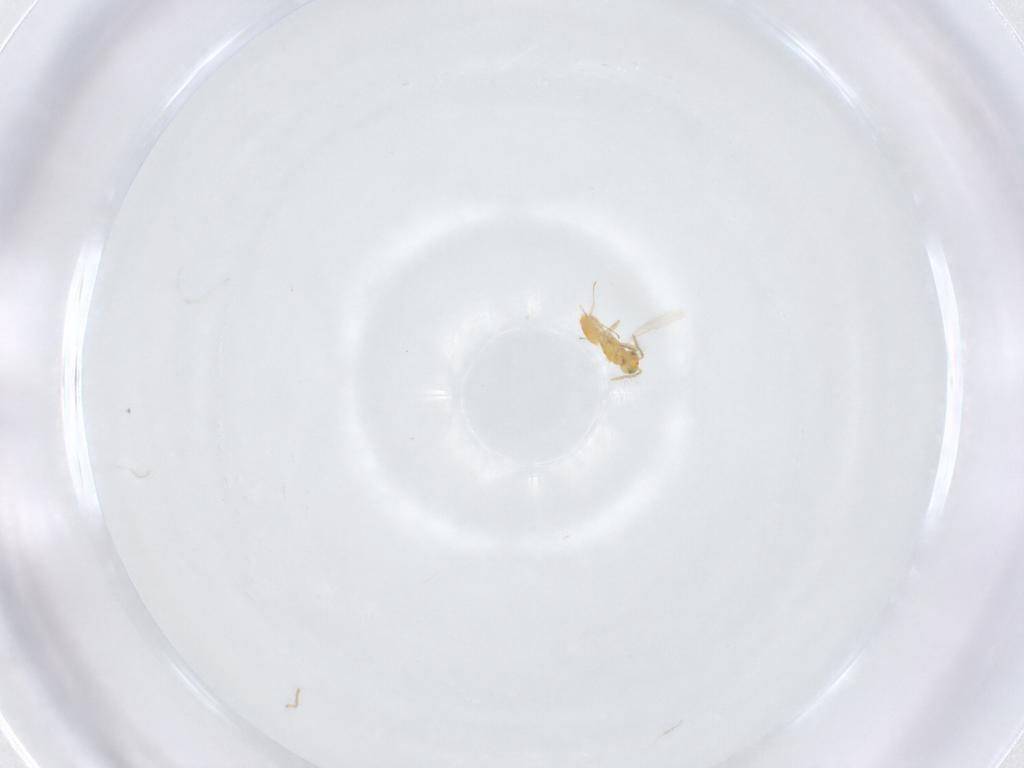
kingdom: Animalia
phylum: Arthropoda
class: Insecta
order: Hymenoptera
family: Aphelinidae
